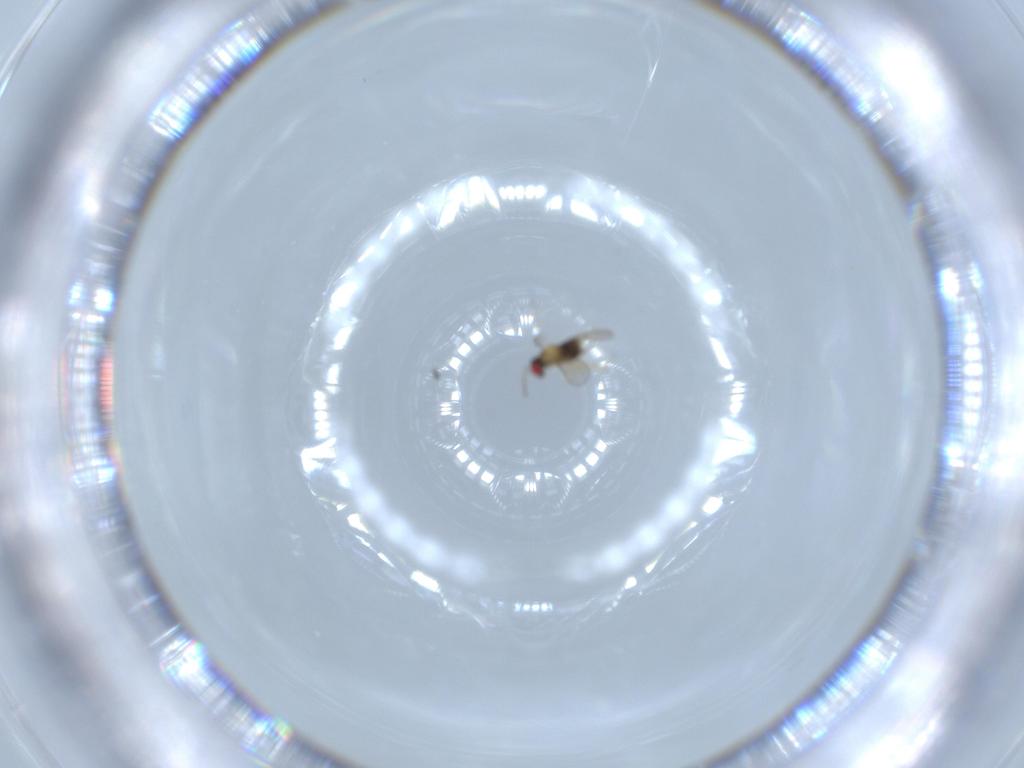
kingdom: Animalia
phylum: Arthropoda
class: Insecta
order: Hymenoptera
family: Aphelinidae
